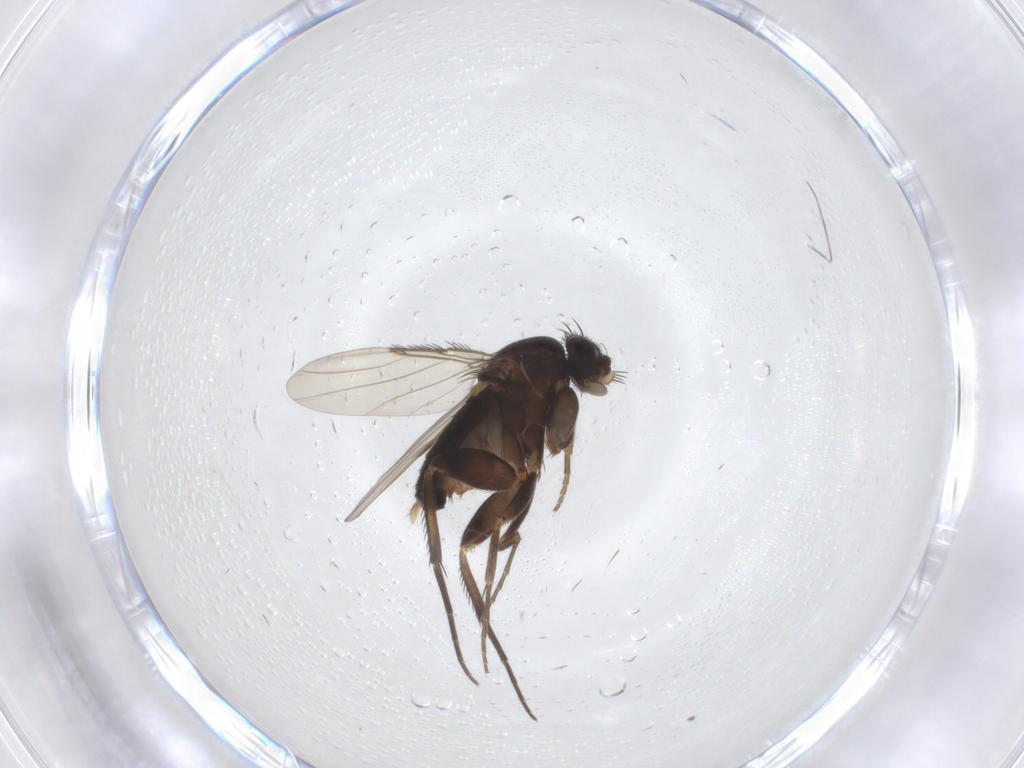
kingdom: Animalia
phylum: Arthropoda
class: Insecta
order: Diptera
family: Phoridae
